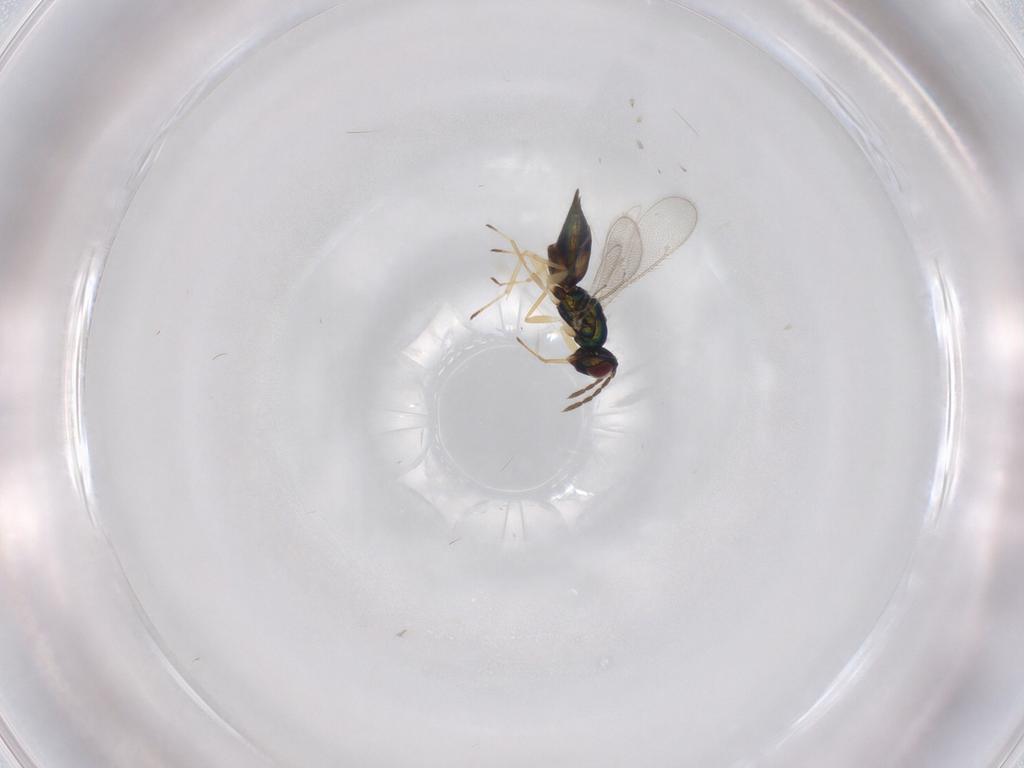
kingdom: Animalia
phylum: Arthropoda
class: Insecta
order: Hymenoptera
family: Eulophidae
